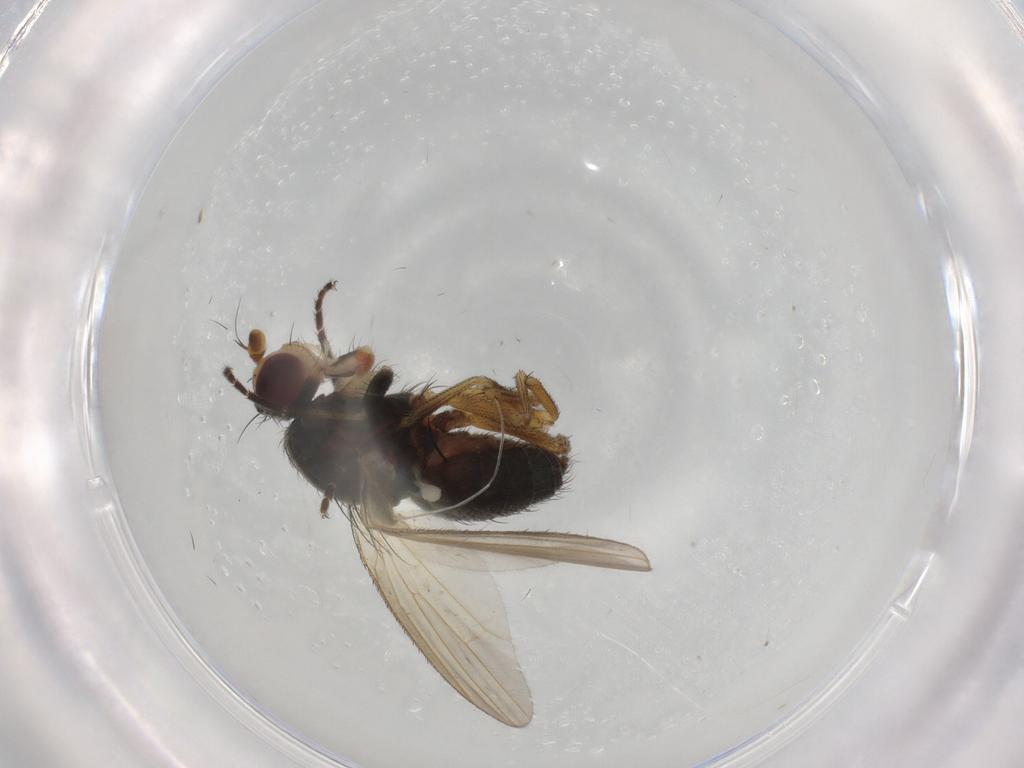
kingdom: Animalia
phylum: Arthropoda
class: Insecta
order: Diptera
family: Ulidiidae
